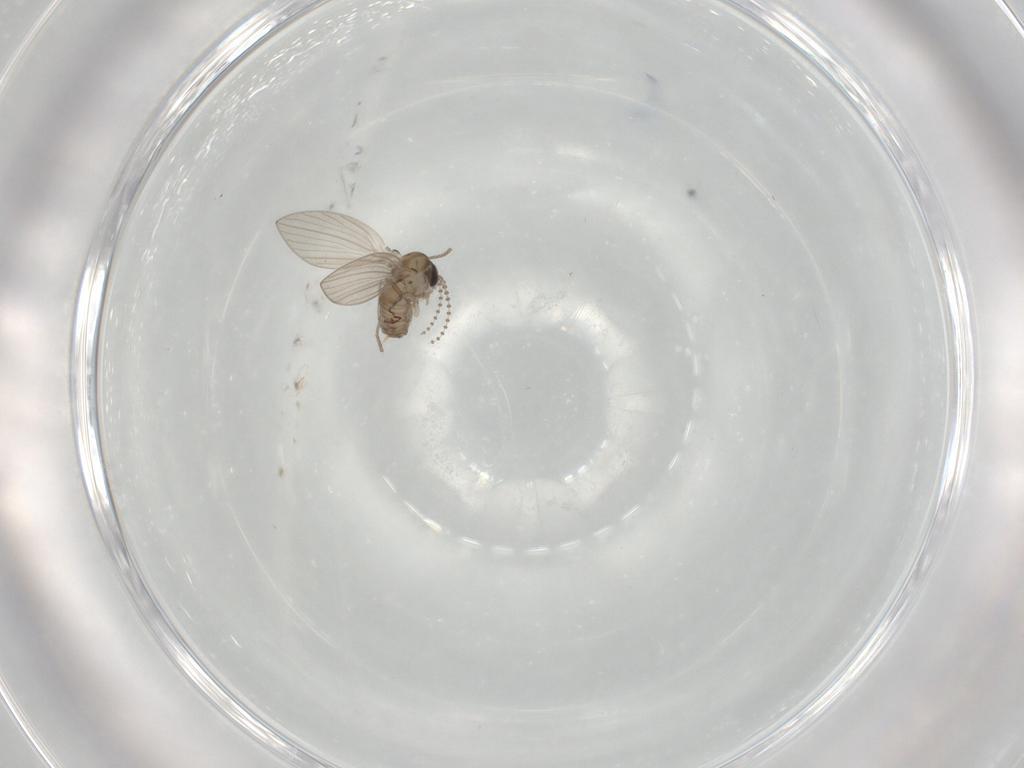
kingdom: Animalia
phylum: Arthropoda
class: Insecta
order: Diptera
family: Psychodidae
